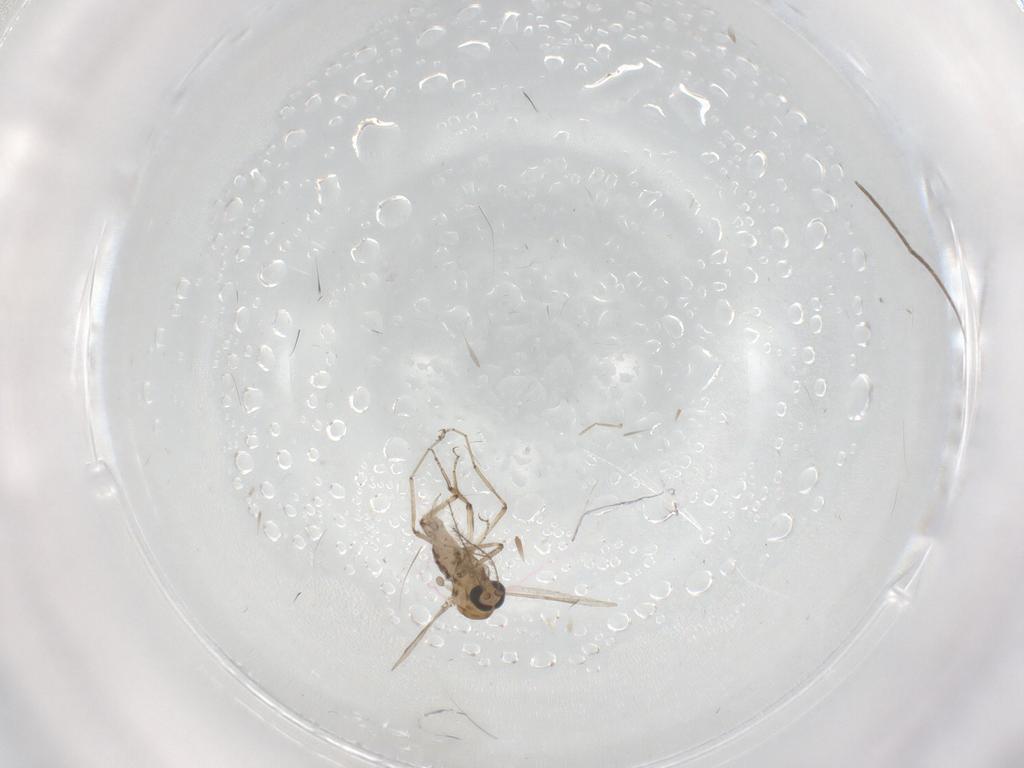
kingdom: Animalia
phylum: Arthropoda
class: Insecta
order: Diptera
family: Ceratopogonidae
